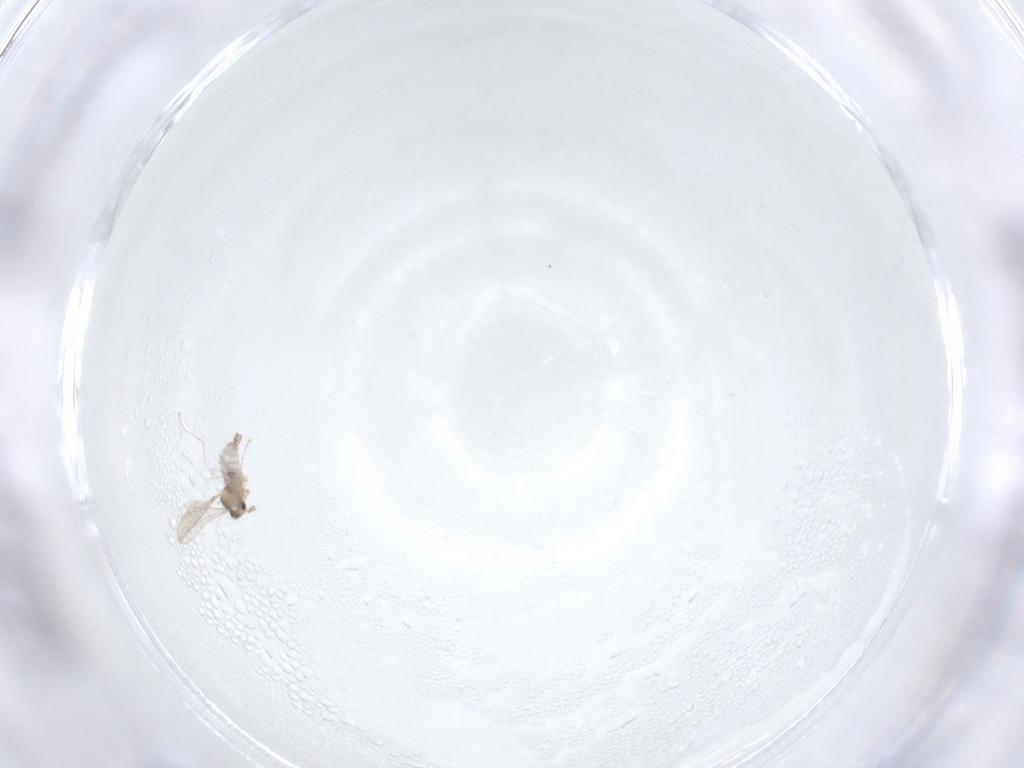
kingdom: Animalia
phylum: Arthropoda
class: Insecta
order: Diptera
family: Cecidomyiidae
